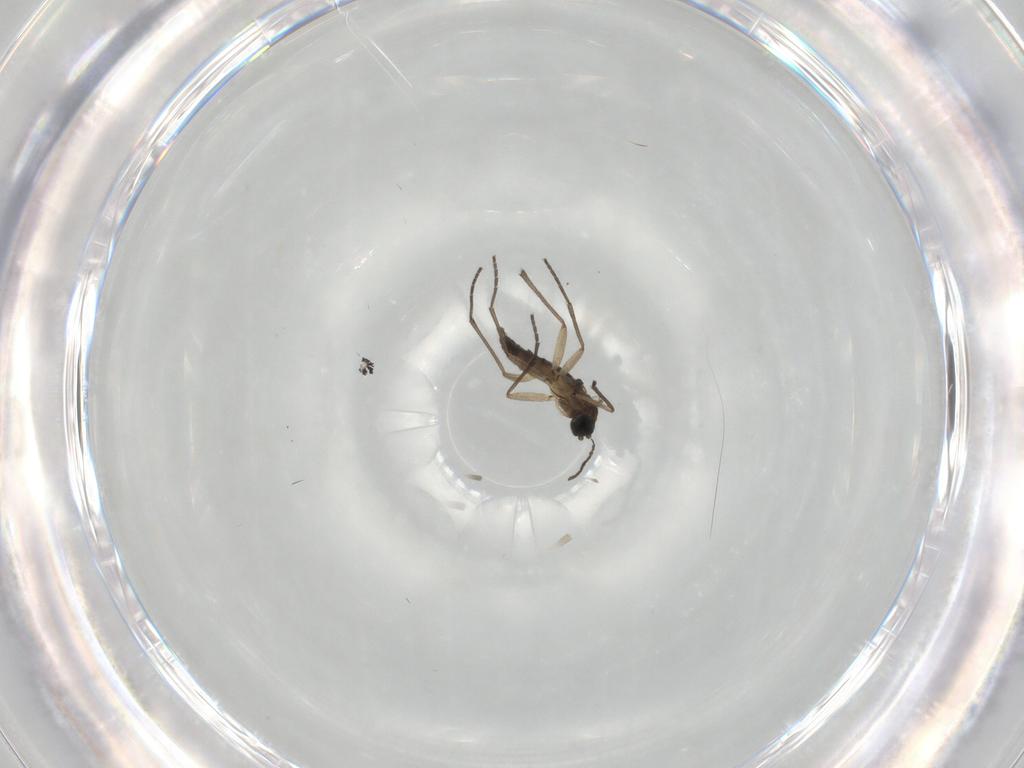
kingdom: Animalia
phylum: Arthropoda
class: Insecta
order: Diptera
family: Sciaridae
